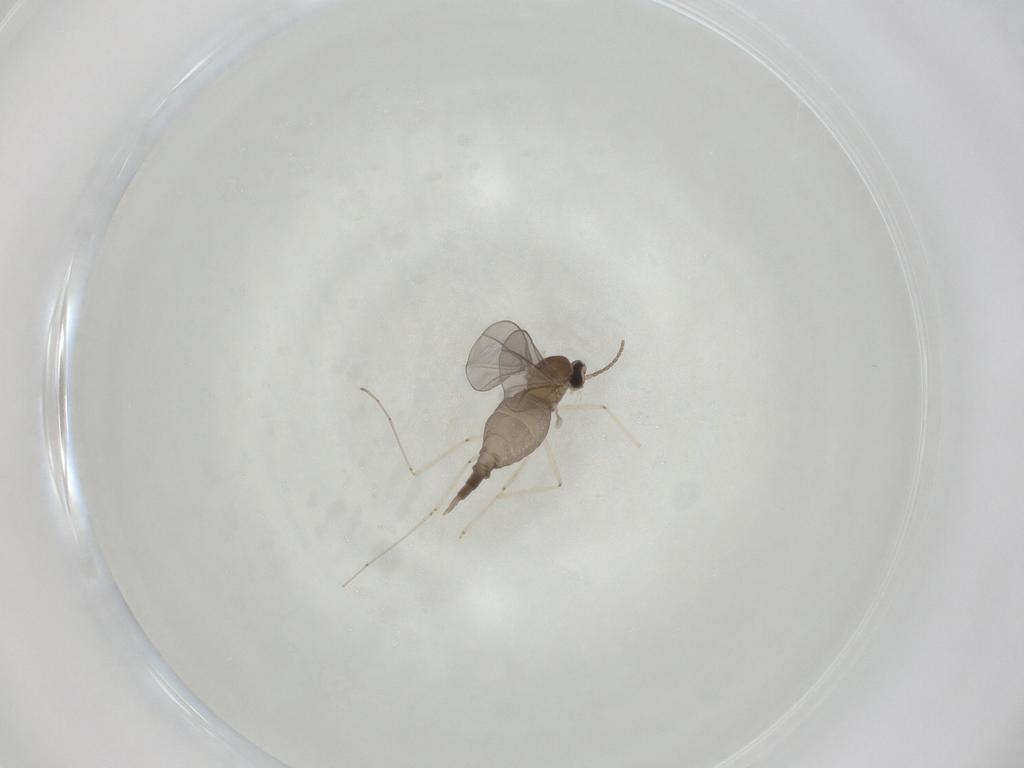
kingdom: Animalia
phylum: Arthropoda
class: Insecta
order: Diptera
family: Cecidomyiidae
